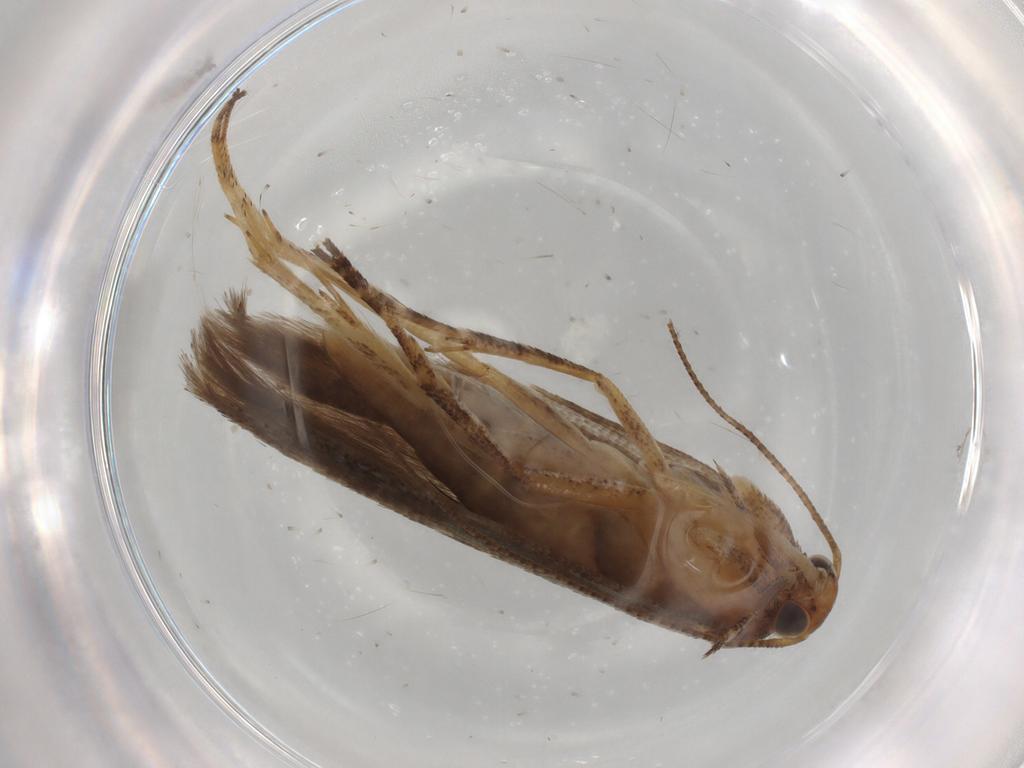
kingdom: Animalia
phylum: Arthropoda
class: Insecta
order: Lepidoptera
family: Gelechiidae
